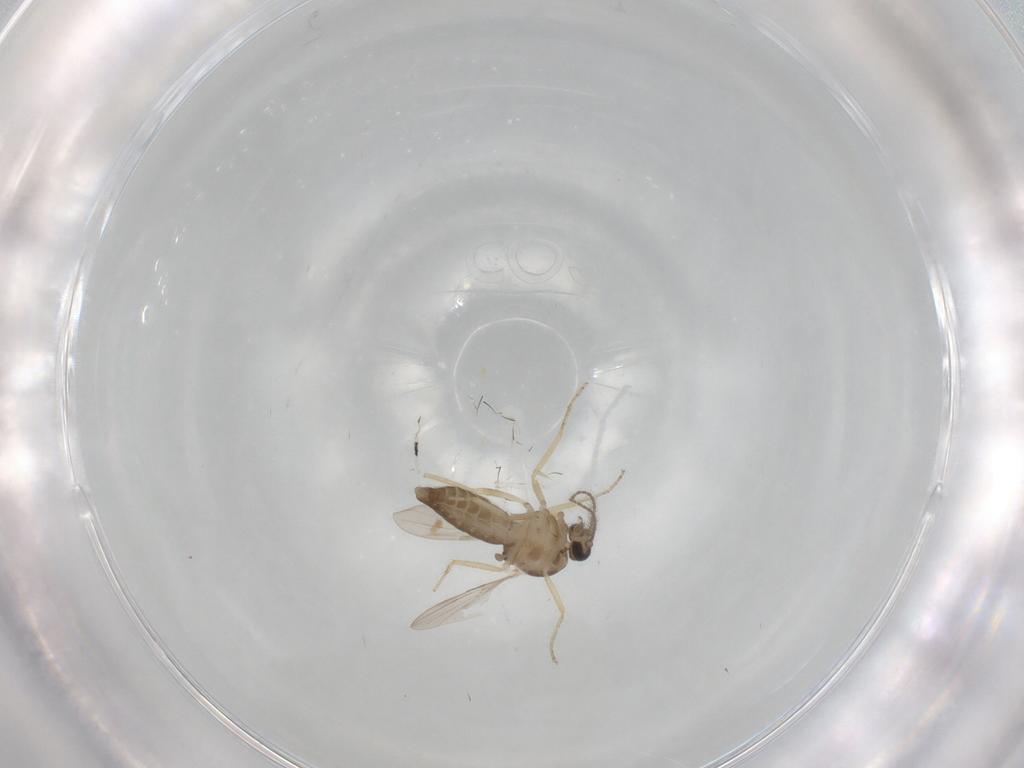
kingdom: Animalia
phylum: Arthropoda
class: Insecta
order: Diptera
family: Ceratopogonidae
